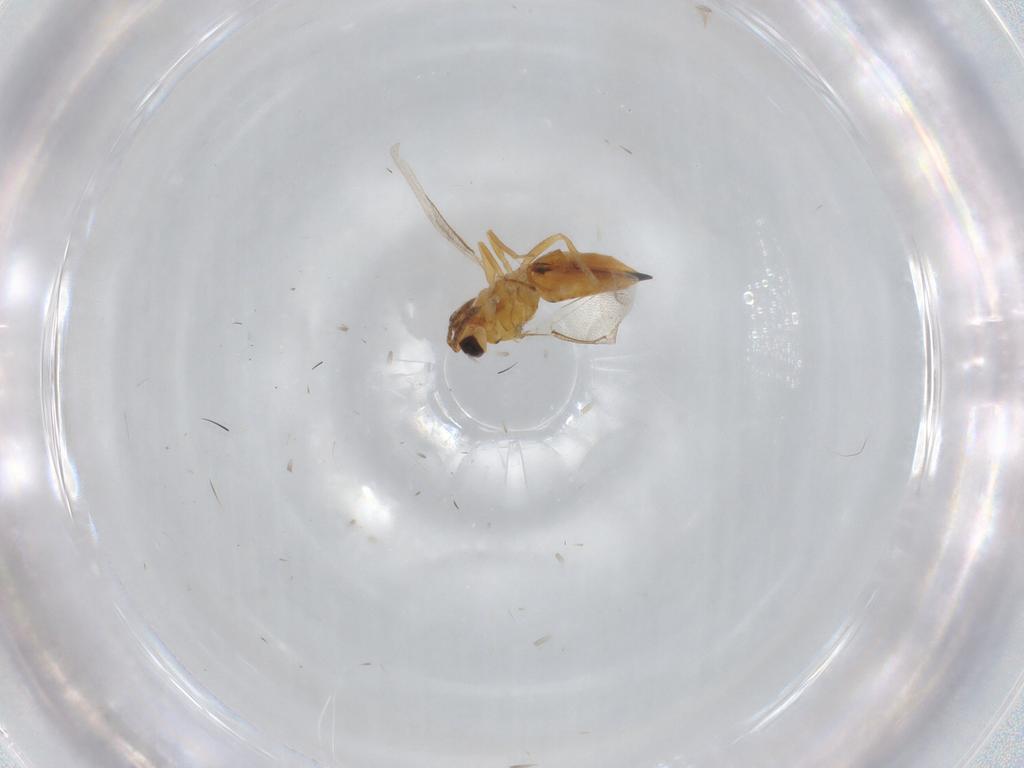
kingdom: Animalia
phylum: Arthropoda
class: Insecta
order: Hymenoptera
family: Eulophidae
